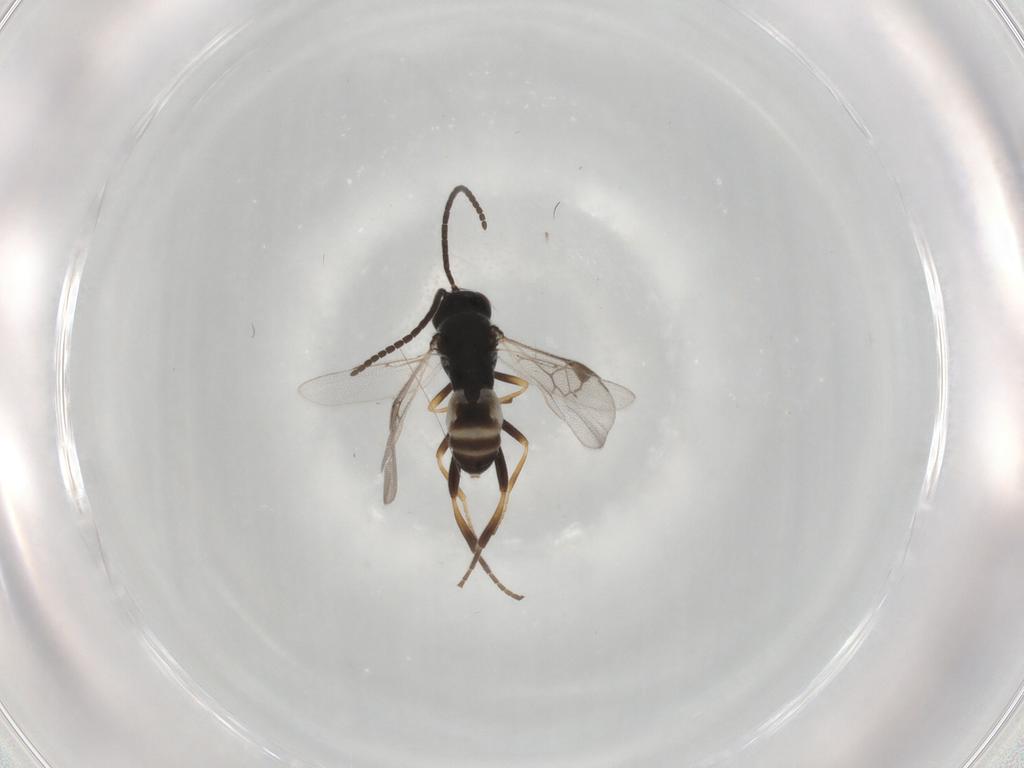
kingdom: Animalia
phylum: Arthropoda
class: Insecta
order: Hymenoptera
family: Braconidae
